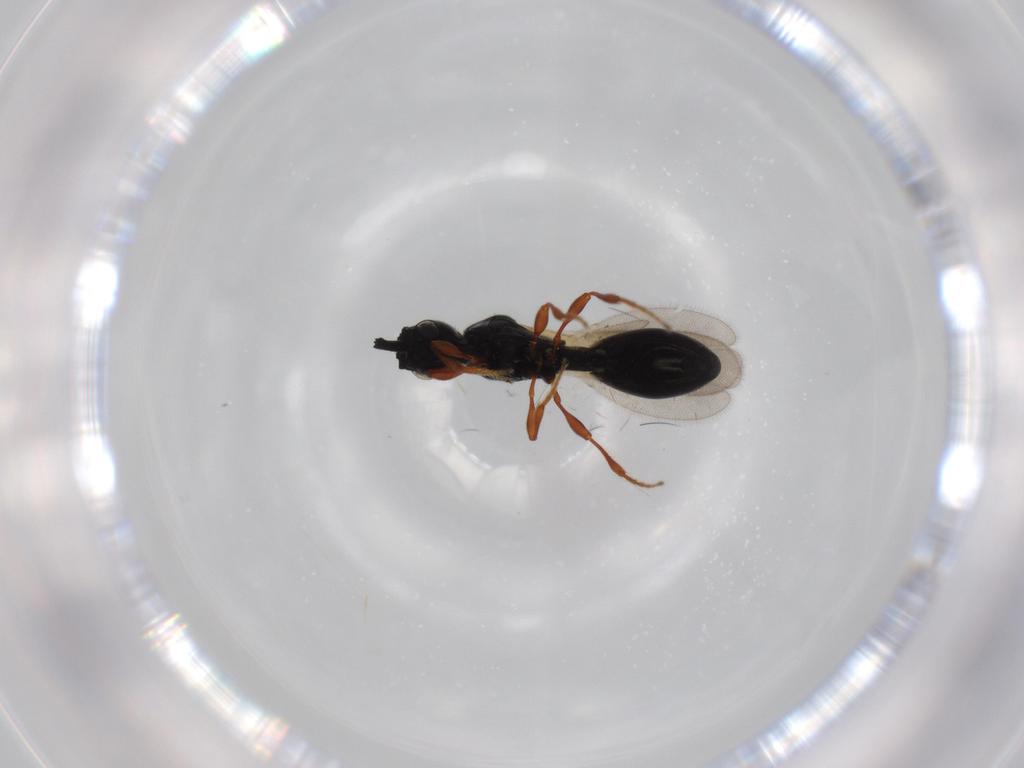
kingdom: Animalia
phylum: Arthropoda
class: Insecta
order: Hymenoptera
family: Diapriidae
